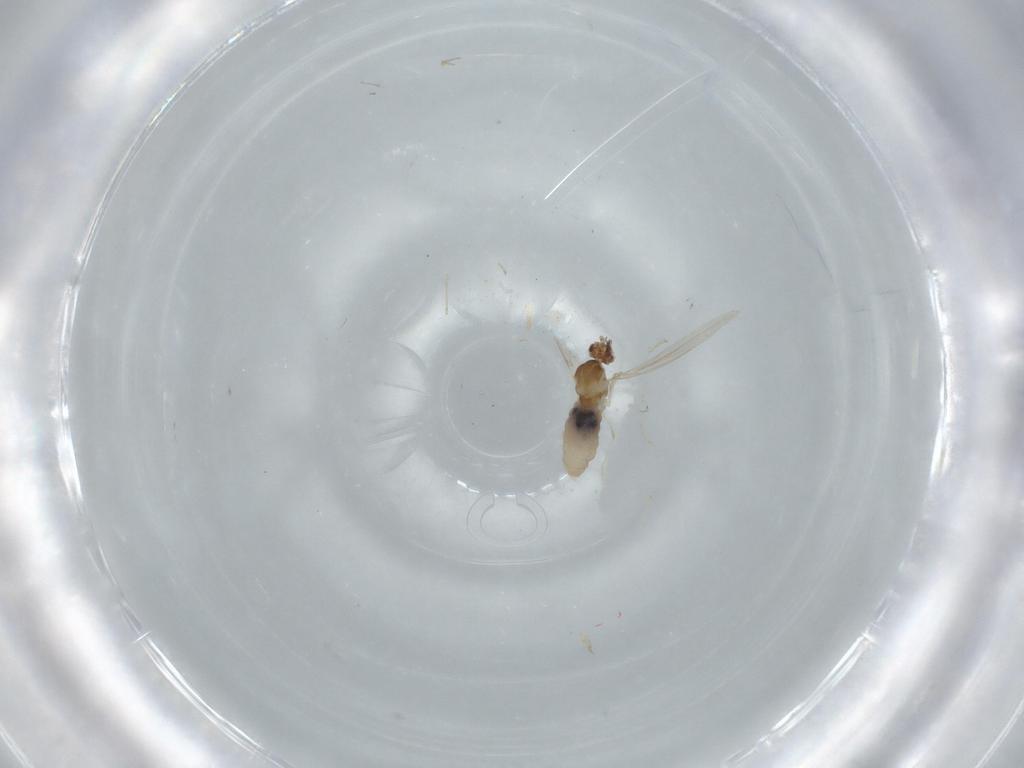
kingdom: Animalia
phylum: Arthropoda
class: Insecta
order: Diptera
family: Cecidomyiidae
